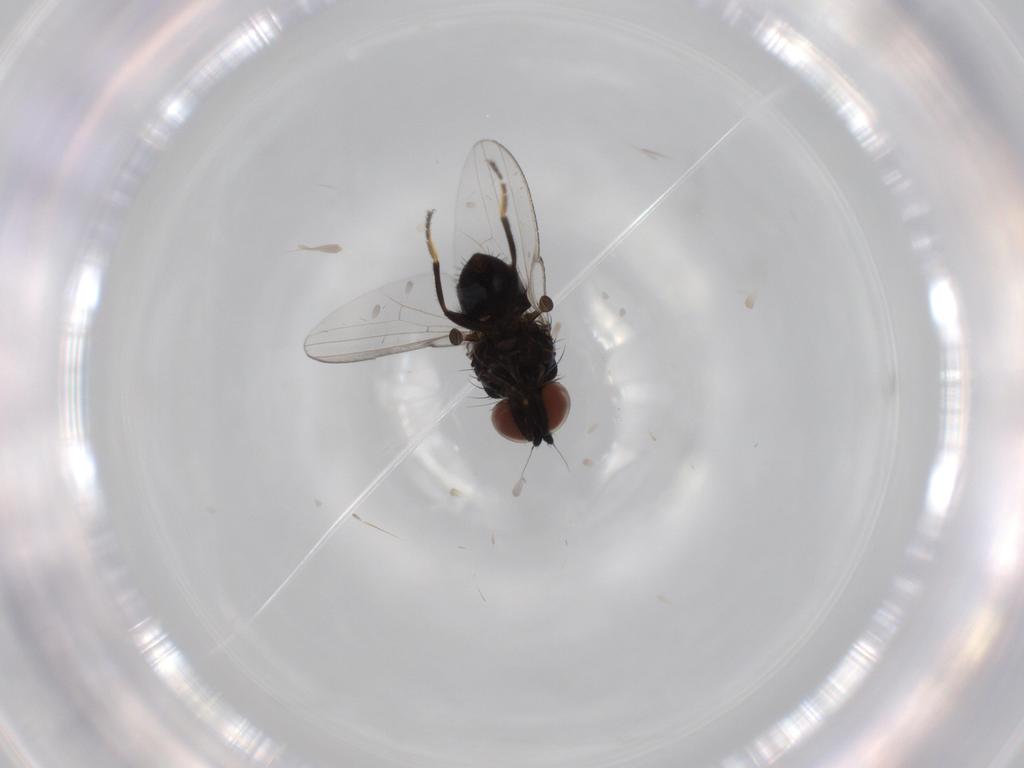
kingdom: Animalia
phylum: Arthropoda
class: Insecta
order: Diptera
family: Milichiidae
